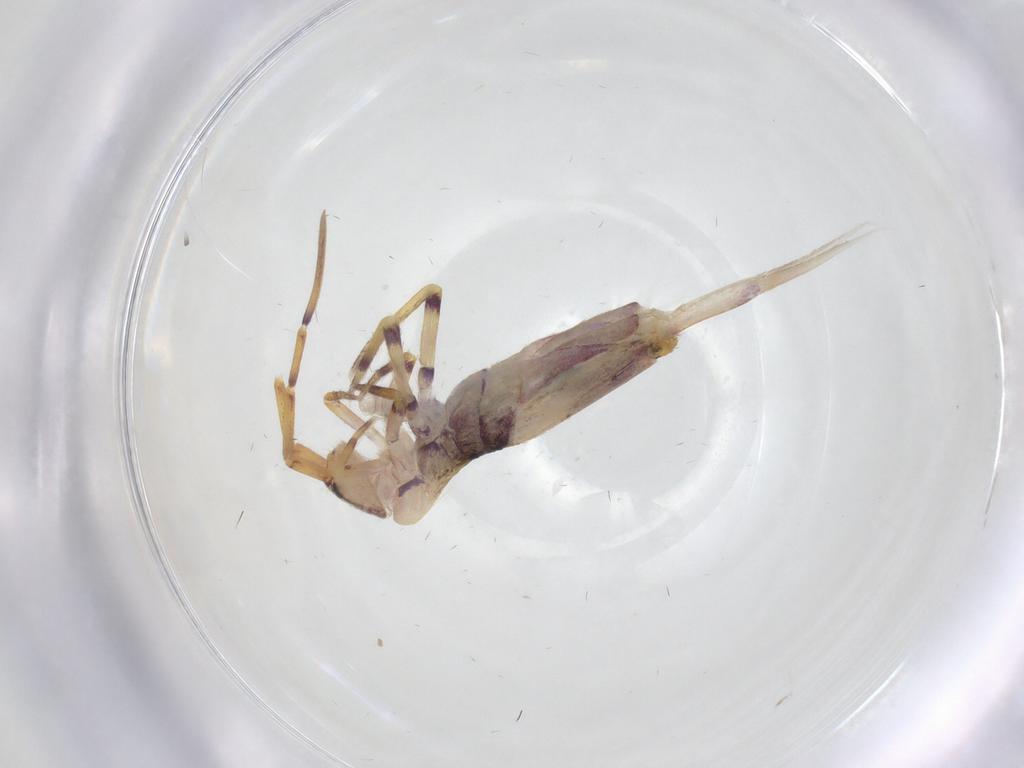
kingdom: Animalia
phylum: Arthropoda
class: Collembola
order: Entomobryomorpha
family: Entomobryidae
